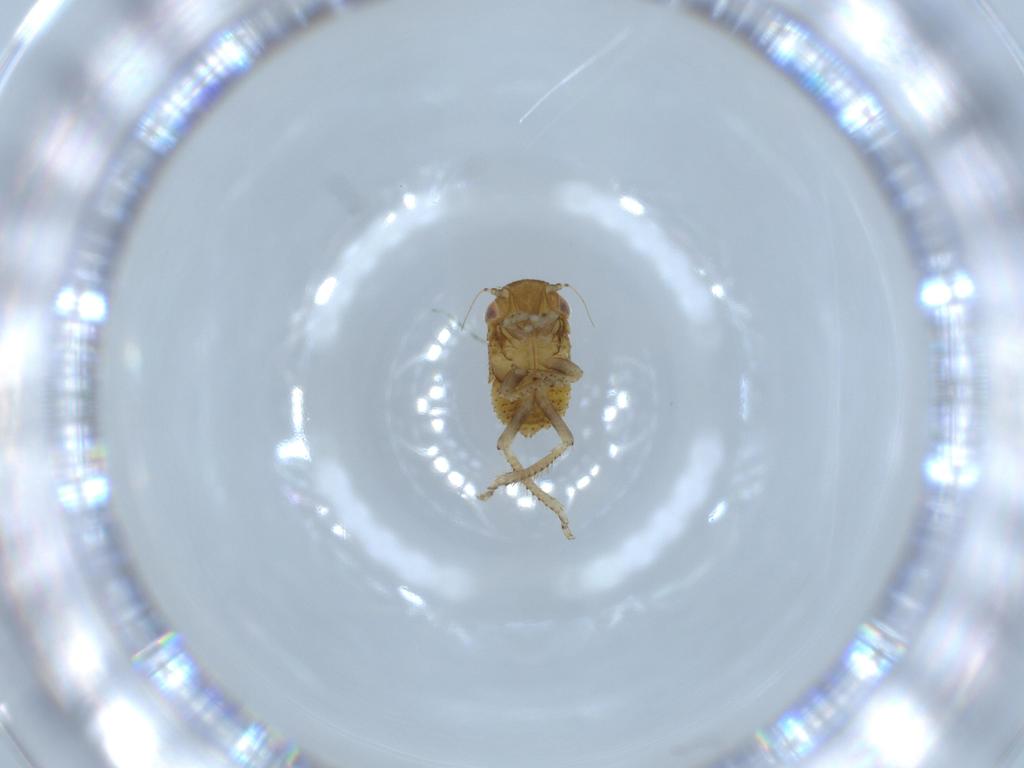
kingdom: Animalia
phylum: Arthropoda
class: Insecta
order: Hemiptera
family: Cicadellidae
